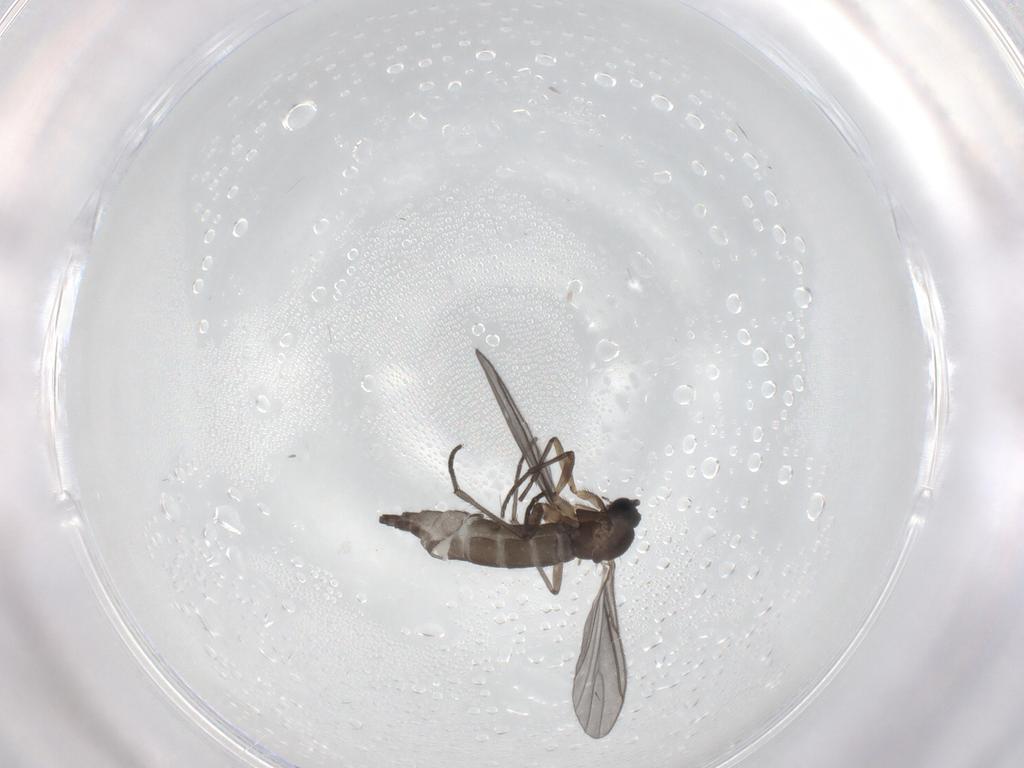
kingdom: Animalia
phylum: Arthropoda
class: Insecta
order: Diptera
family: Sciaridae
